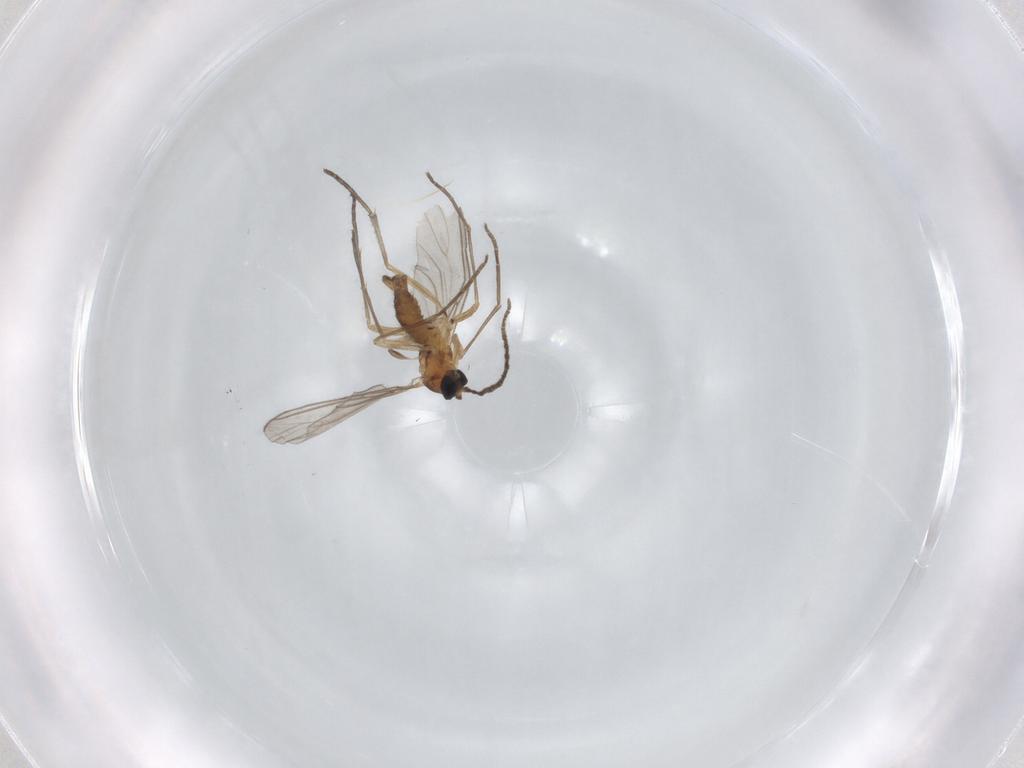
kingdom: Animalia
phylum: Arthropoda
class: Insecta
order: Diptera
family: Sciaridae
